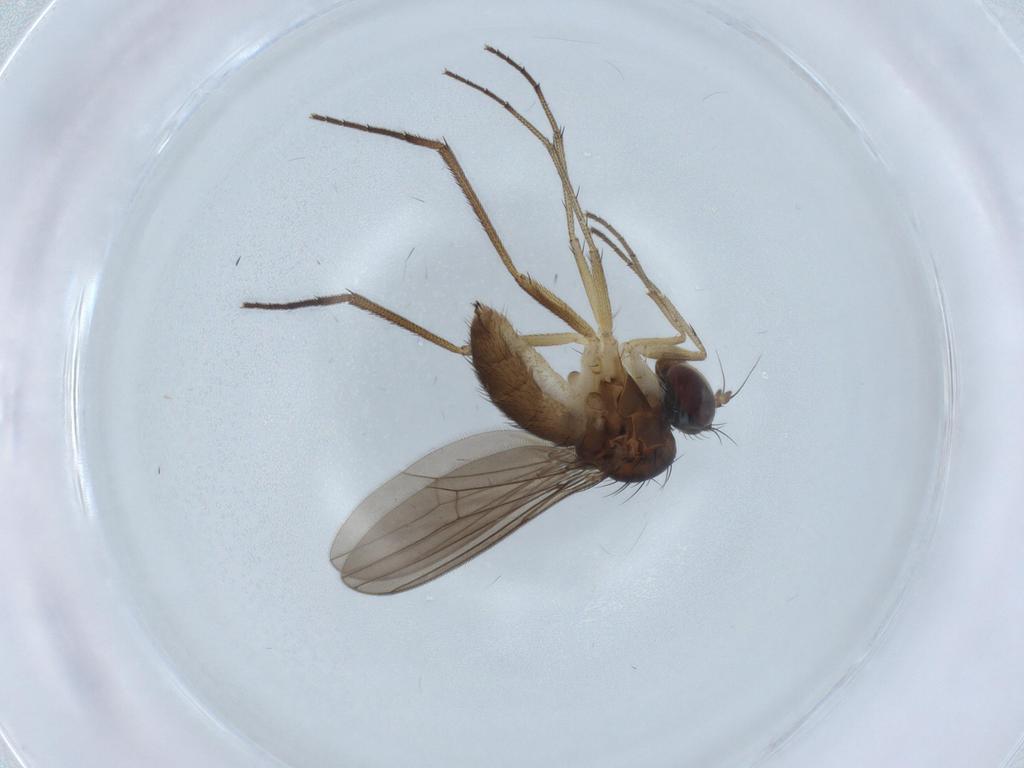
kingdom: Animalia
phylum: Arthropoda
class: Insecta
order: Diptera
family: Dolichopodidae
